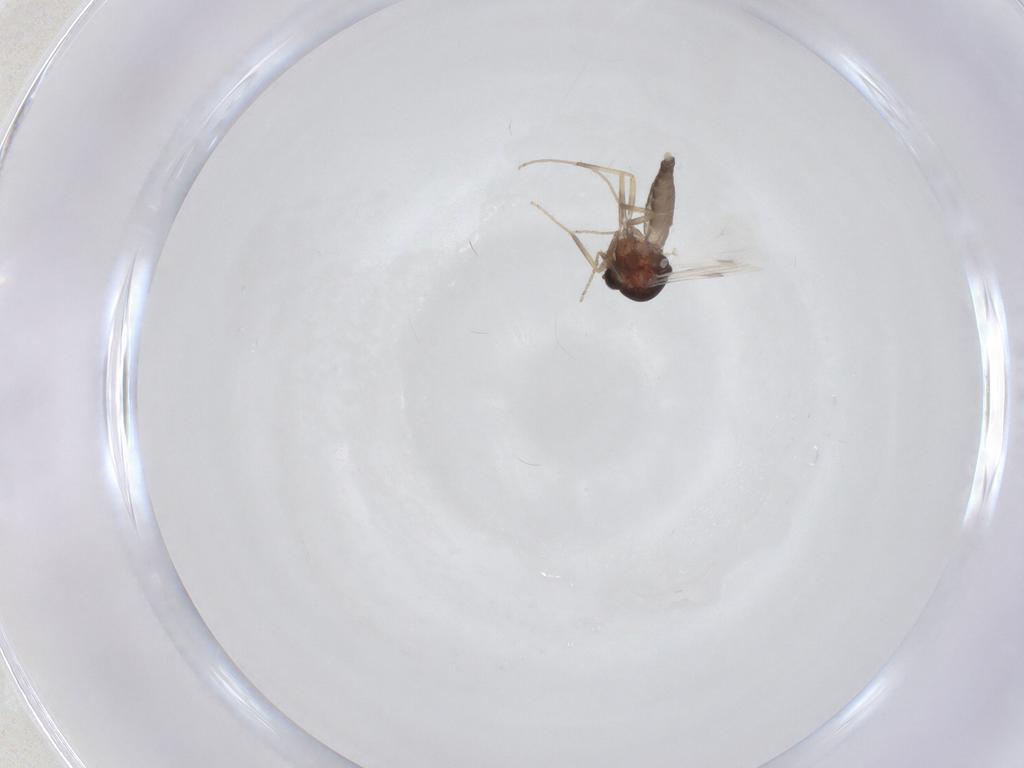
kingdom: Animalia
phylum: Arthropoda
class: Insecta
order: Diptera
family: Ceratopogonidae
